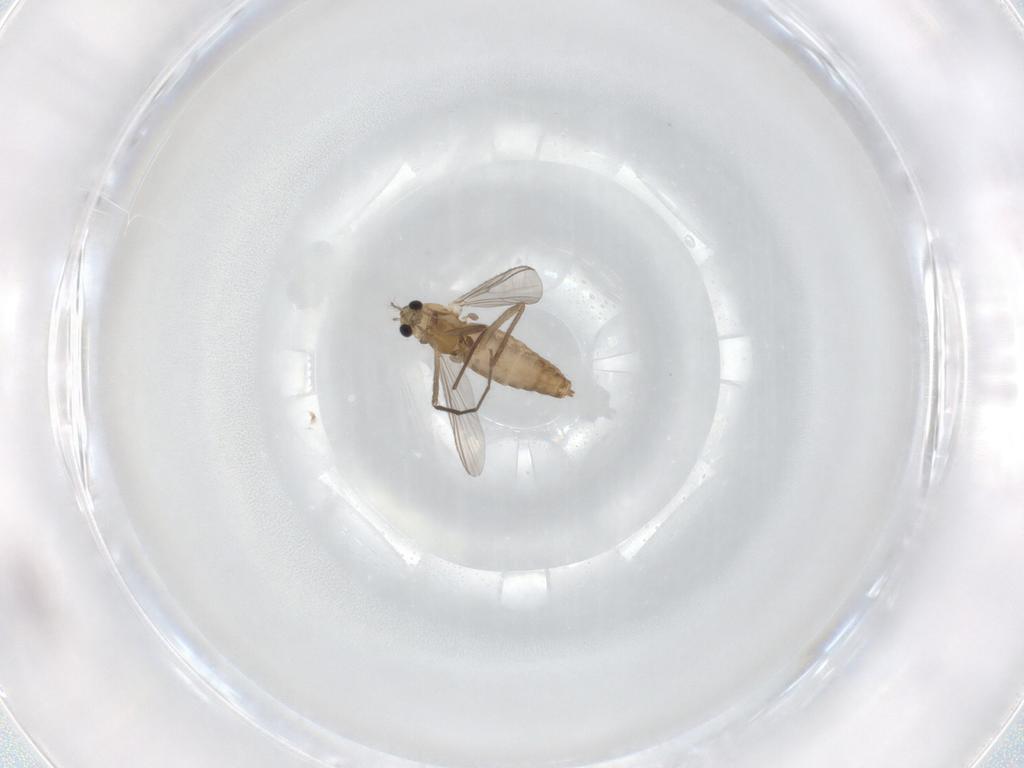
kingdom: Animalia
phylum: Arthropoda
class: Insecta
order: Diptera
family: Chironomidae
